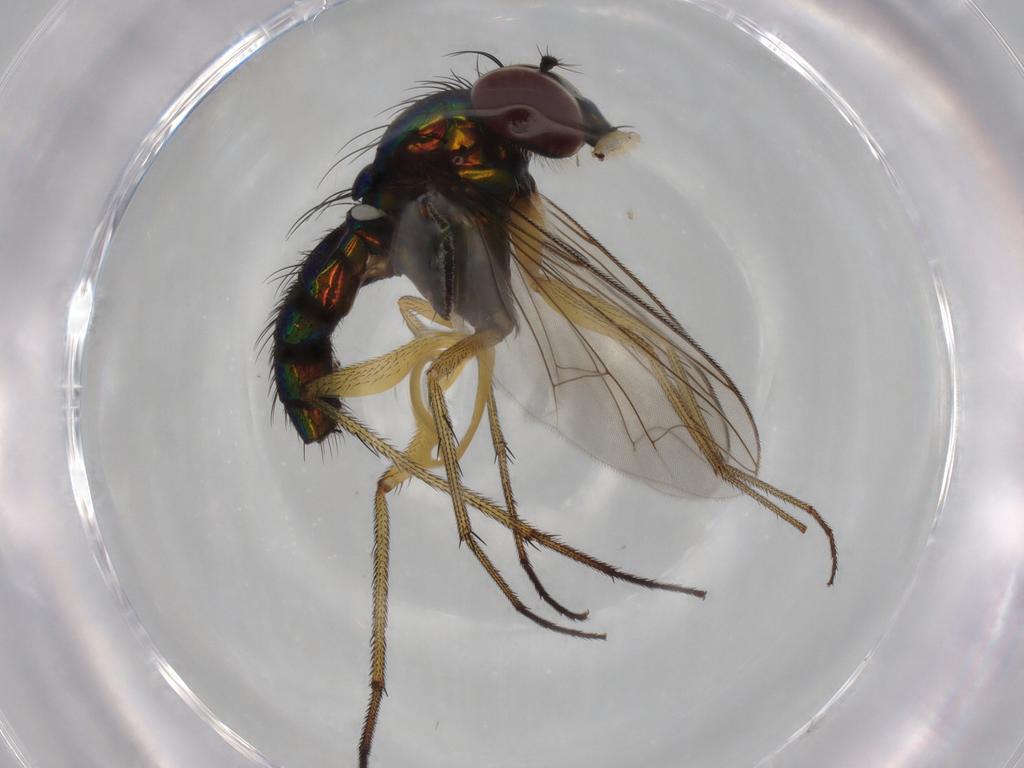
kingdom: Animalia
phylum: Arthropoda
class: Insecta
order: Diptera
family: Dolichopodidae
